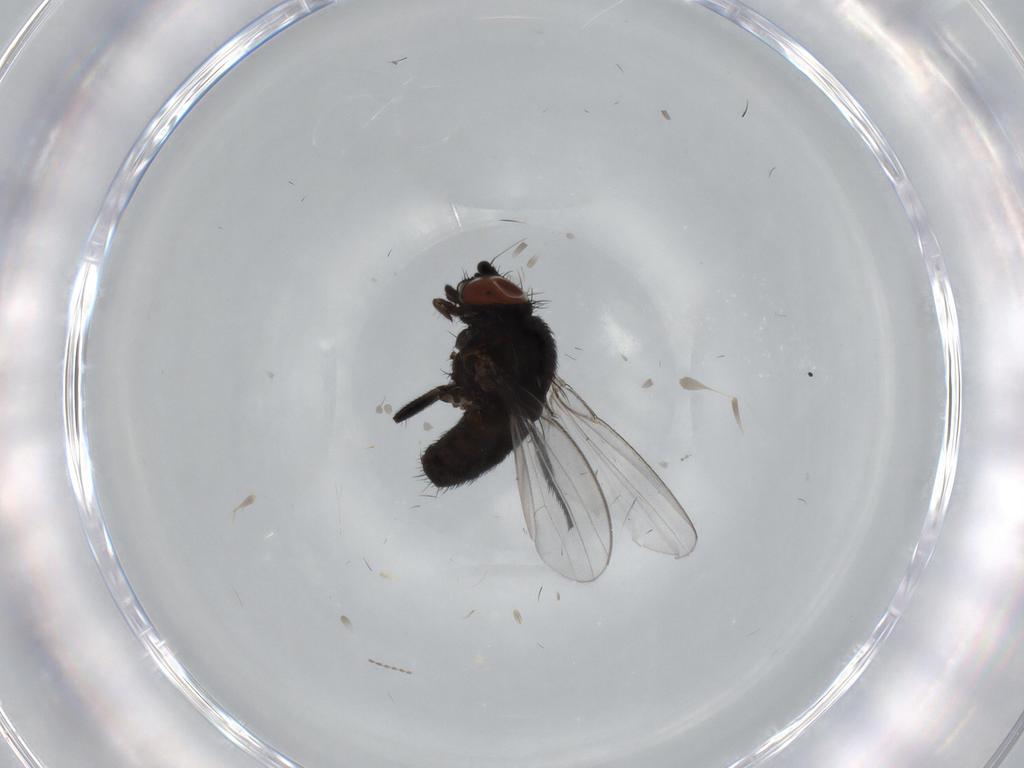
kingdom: Animalia
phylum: Arthropoda
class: Insecta
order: Diptera
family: Milichiidae
